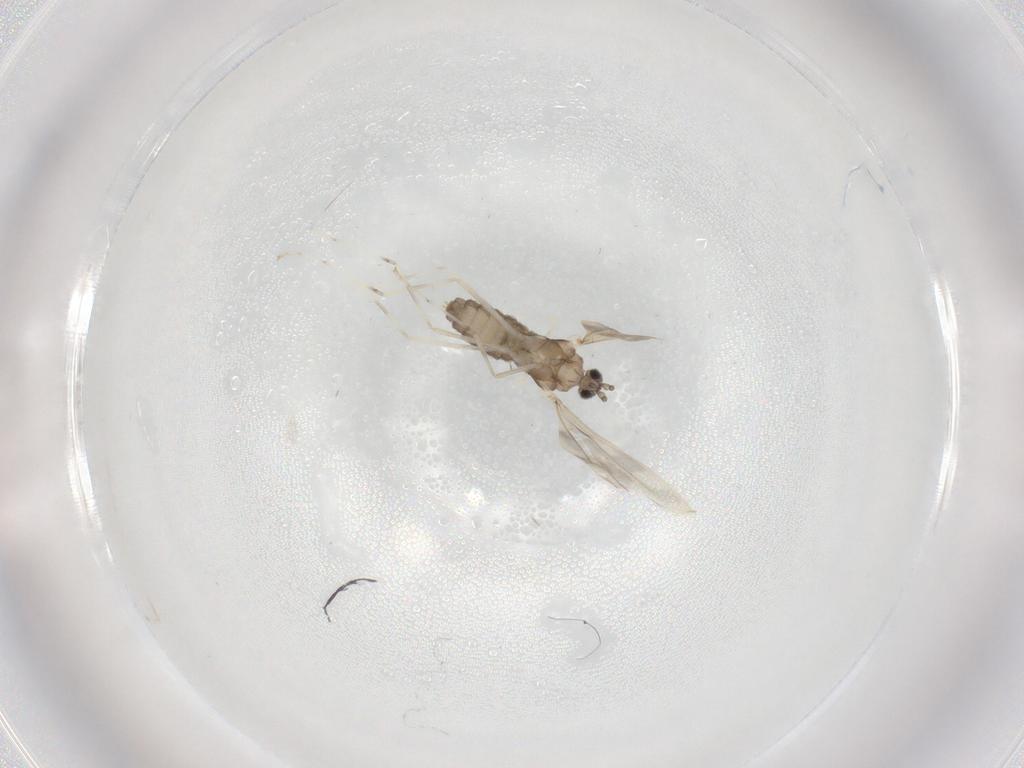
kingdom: Animalia
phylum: Arthropoda
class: Insecta
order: Diptera
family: Cecidomyiidae
